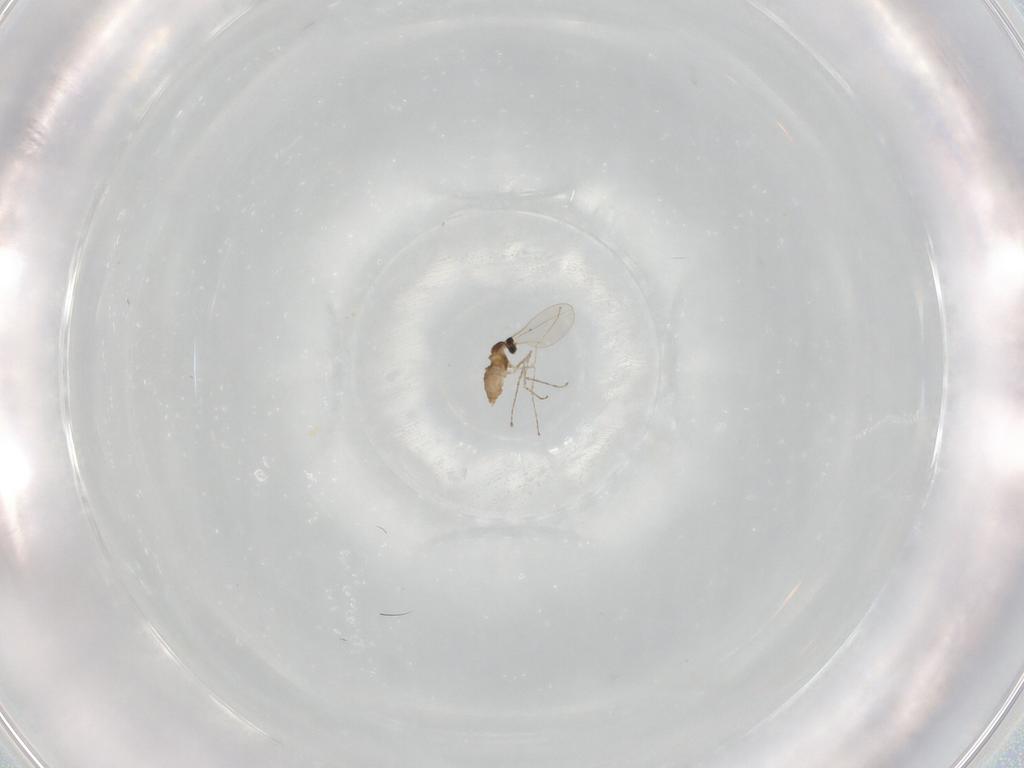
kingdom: Animalia
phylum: Arthropoda
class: Insecta
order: Diptera
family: Cecidomyiidae
